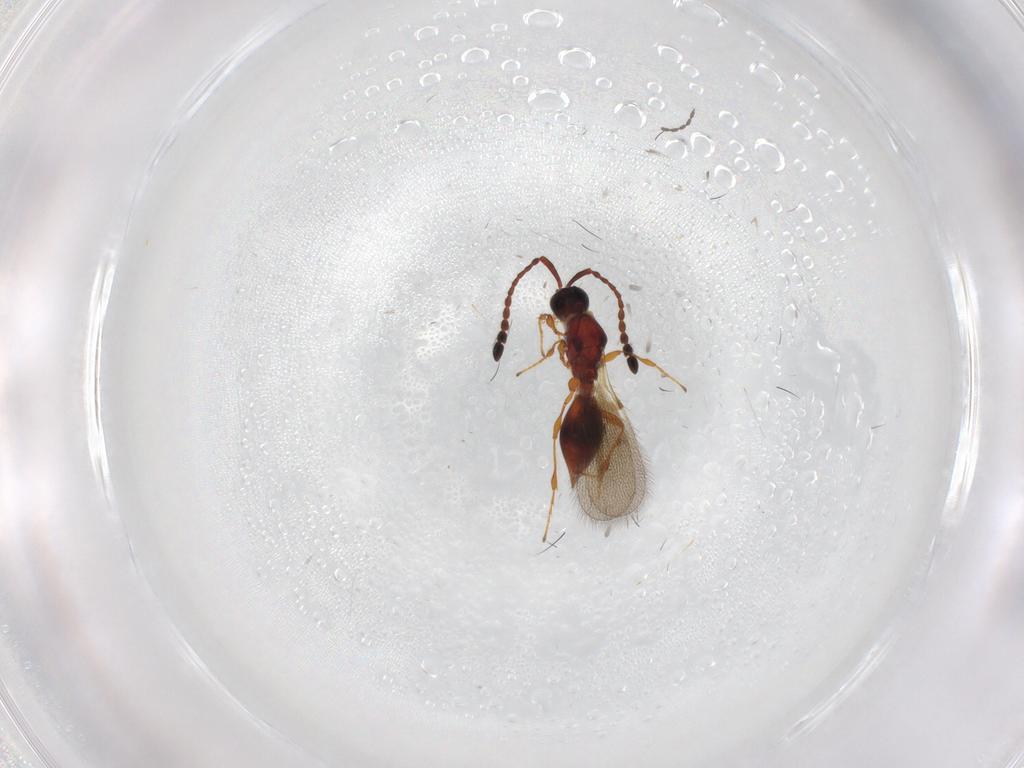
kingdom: Animalia
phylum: Arthropoda
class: Insecta
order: Hymenoptera
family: Diapriidae
